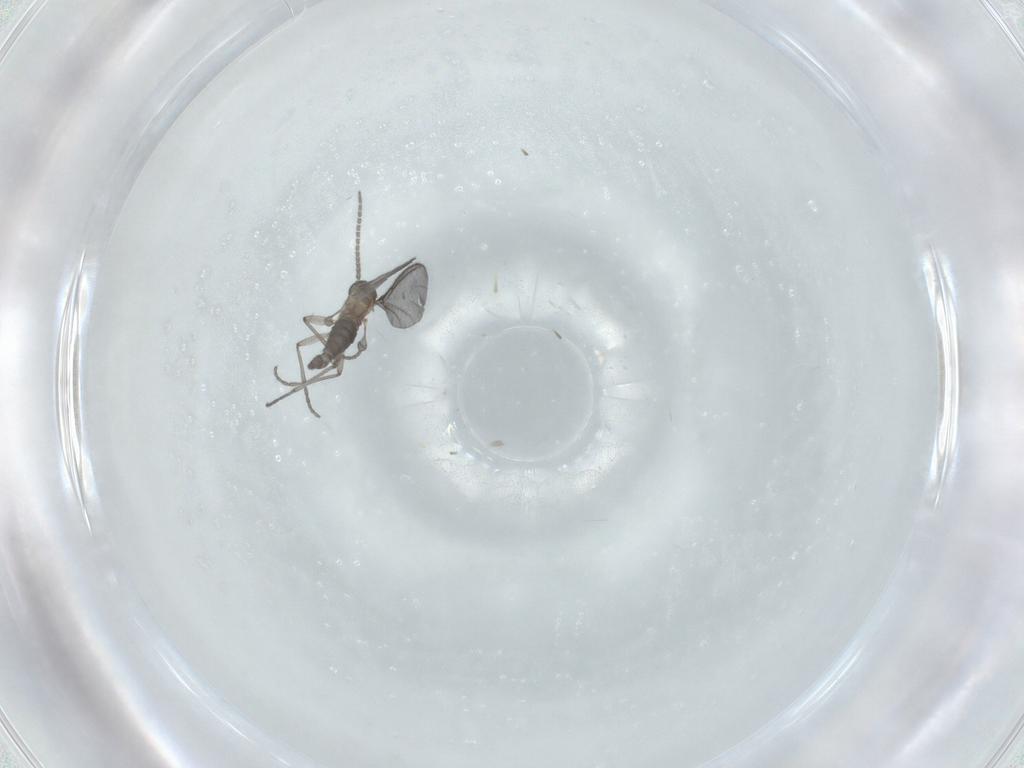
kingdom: Animalia
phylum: Arthropoda
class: Insecta
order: Diptera
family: Sciaridae
